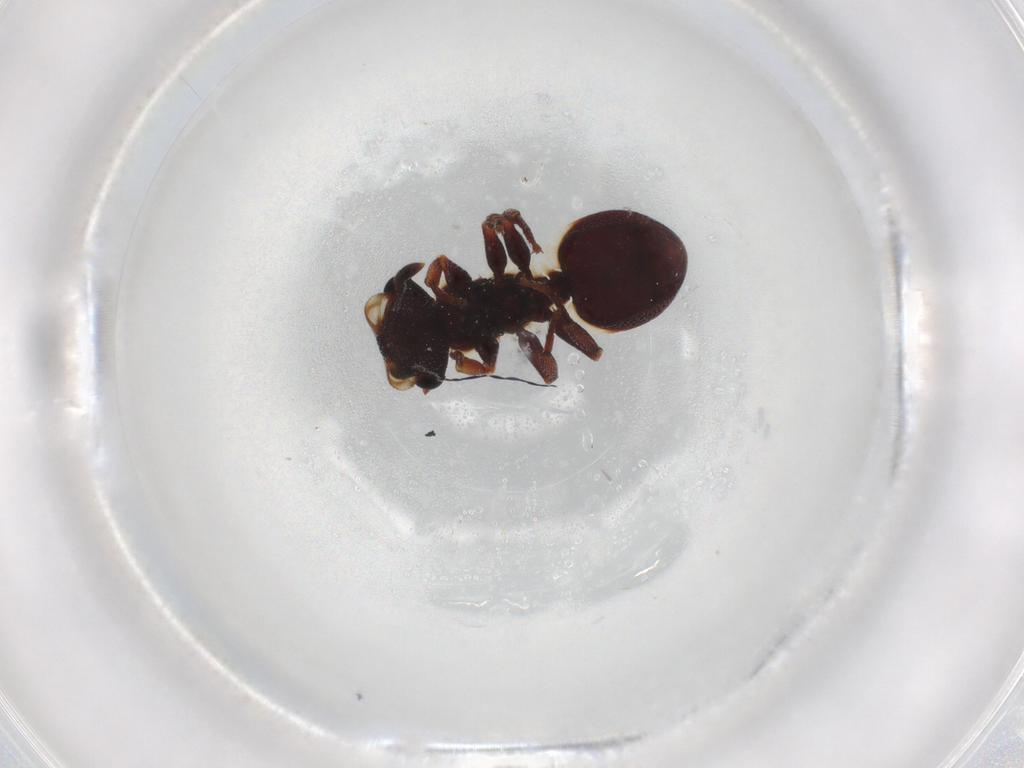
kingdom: Animalia
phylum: Arthropoda
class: Insecta
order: Hymenoptera
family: Formicidae
